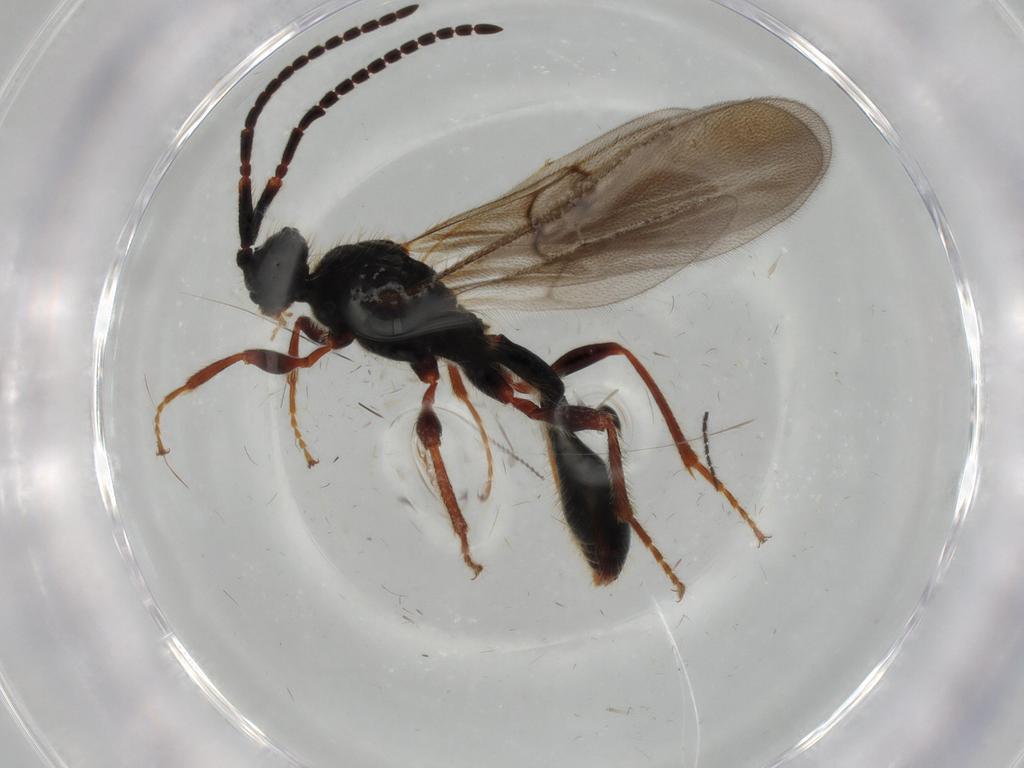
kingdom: Animalia
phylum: Arthropoda
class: Insecta
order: Hymenoptera
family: Diapriidae
